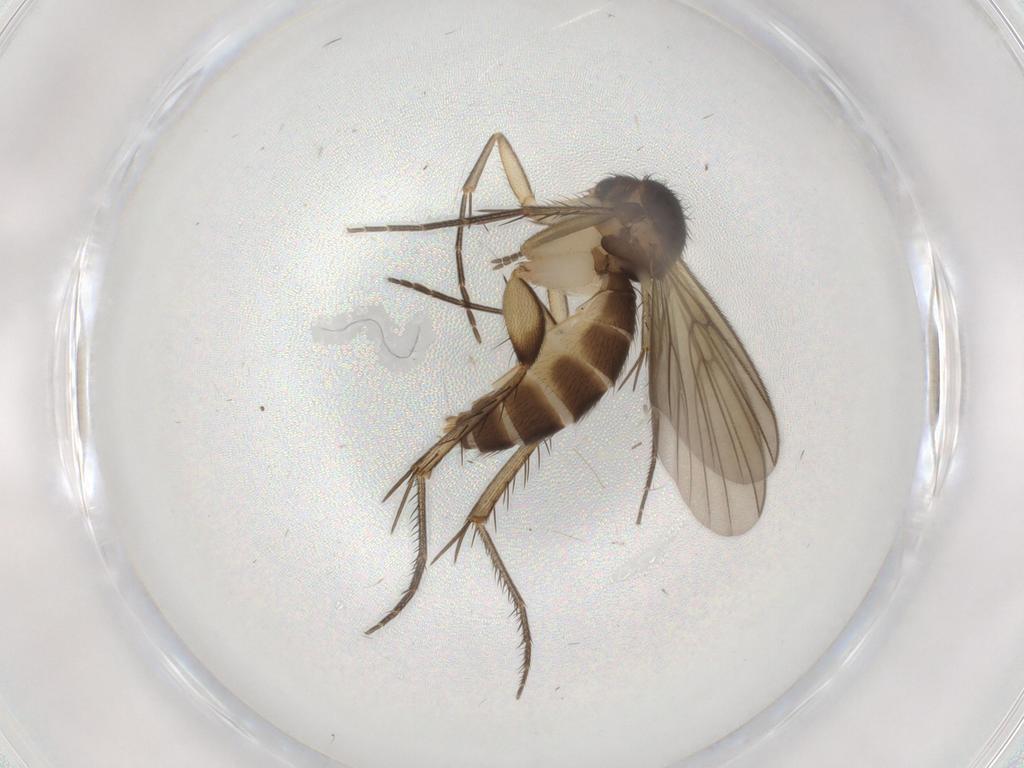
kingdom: Animalia
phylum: Arthropoda
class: Insecta
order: Diptera
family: Mycetophilidae
